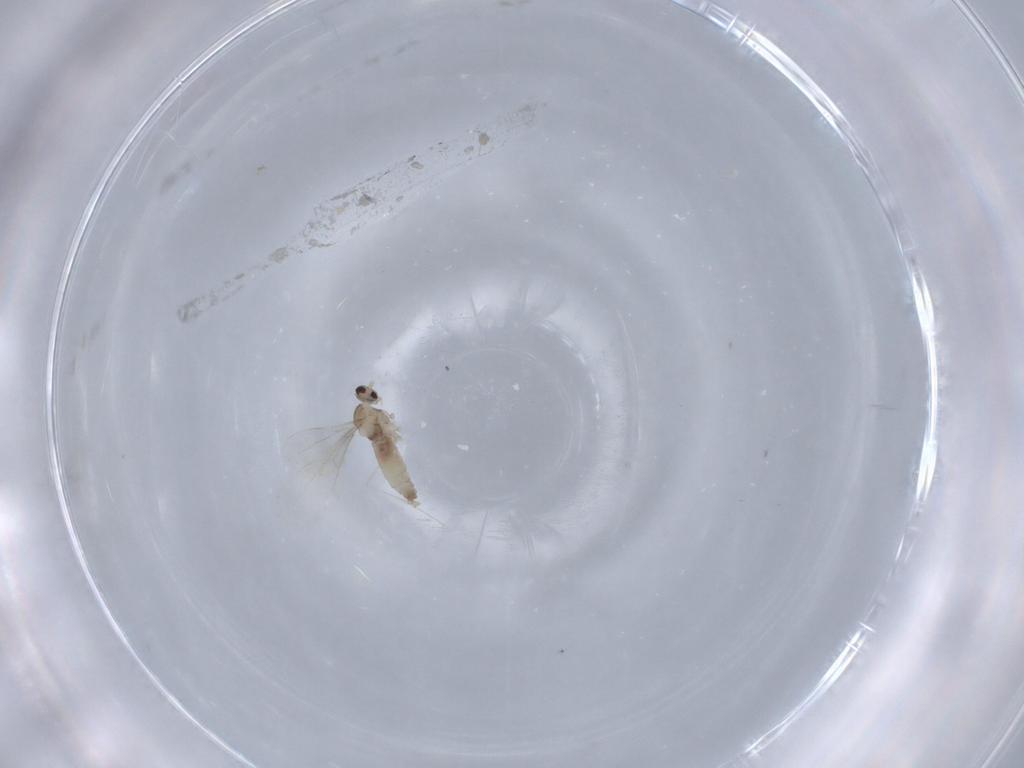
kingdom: Animalia
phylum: Arthropoda
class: Insecta
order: Diptera
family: Cecidomyiidae
